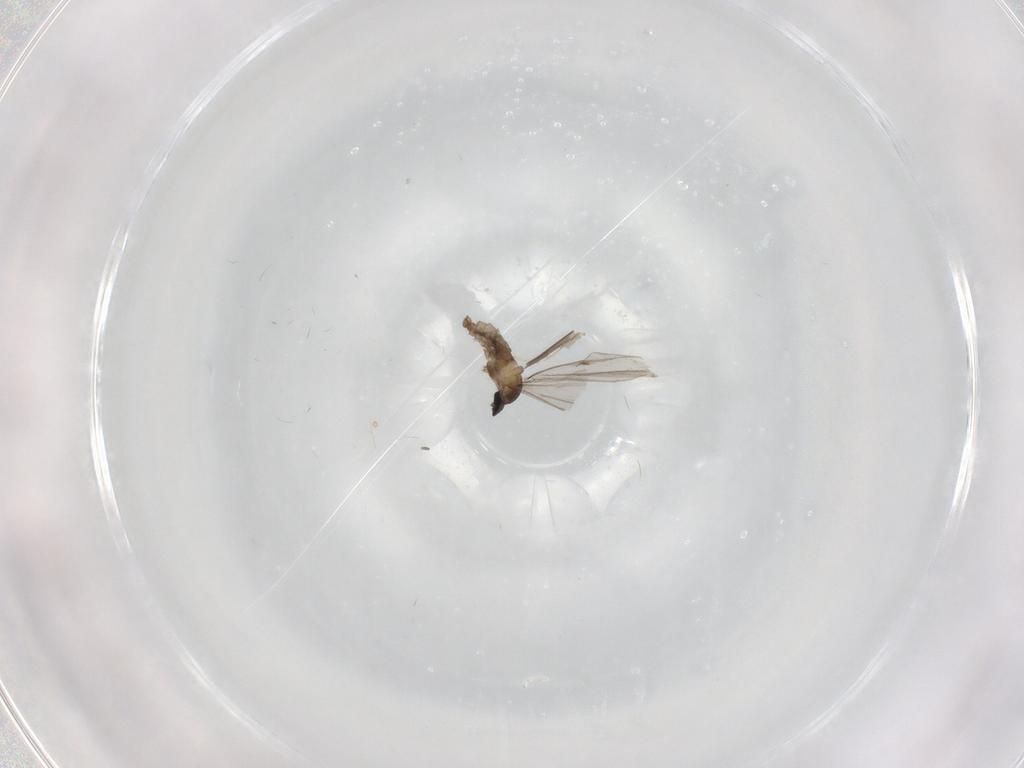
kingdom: Animalia
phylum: Arthropoda
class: Insecta
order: Diptera
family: Cecidomyiidae
